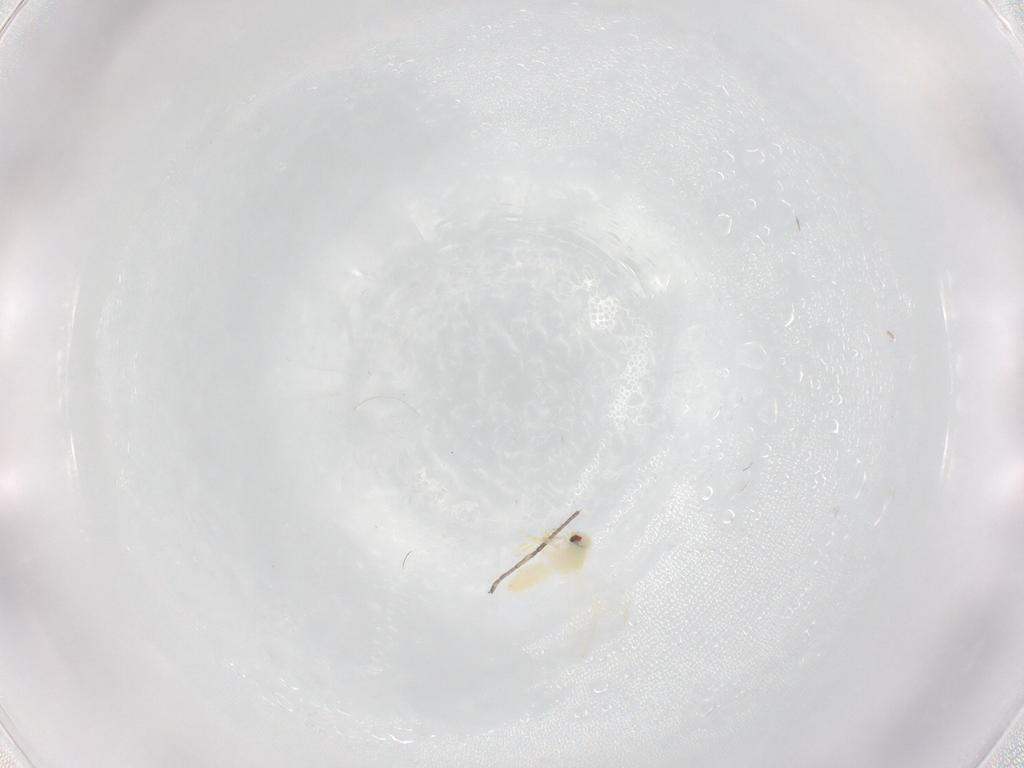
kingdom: Animalia
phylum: Arthropoda
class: Insecta
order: Hemiptera
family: Aleyrodidae
